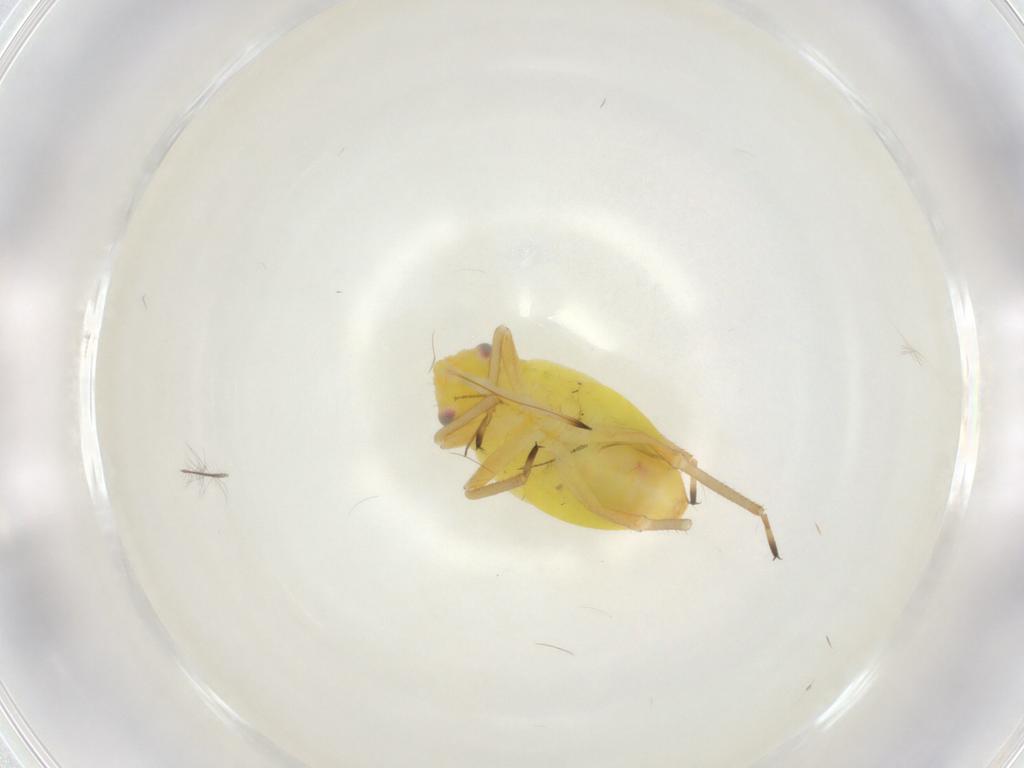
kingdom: Animalia
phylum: Arthropoda
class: Insecta
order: Hemiptera
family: Miridae
